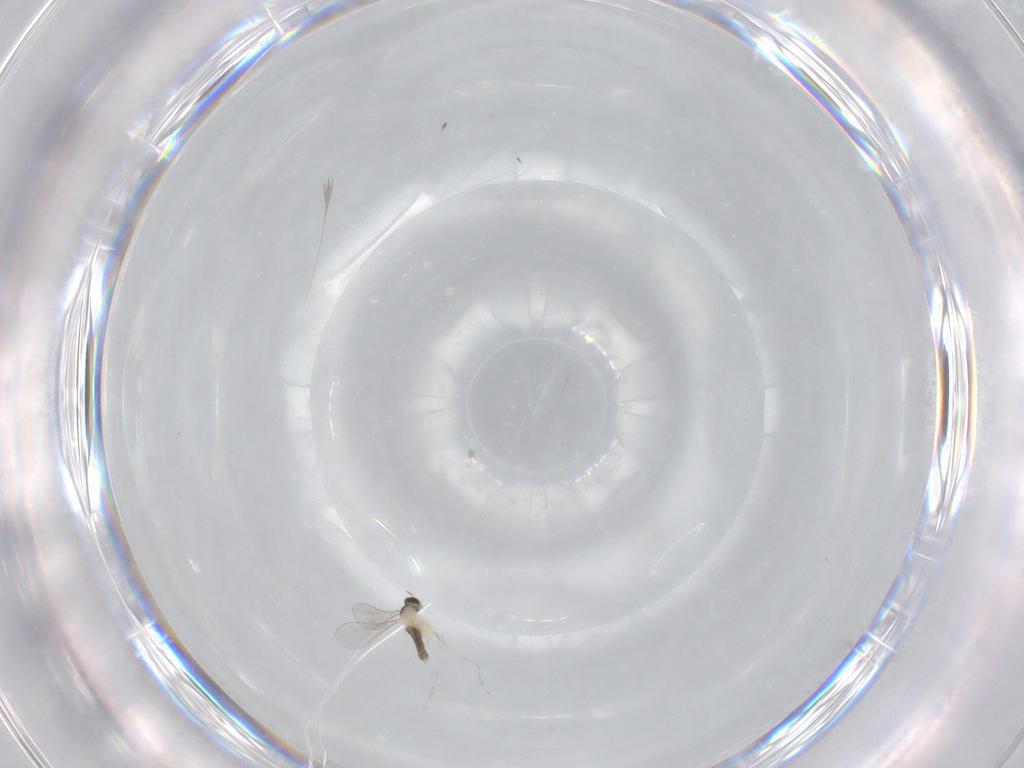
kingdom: Animalia
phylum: Arthropoda
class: Insecta
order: Diptera
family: Cecidomyiidae
